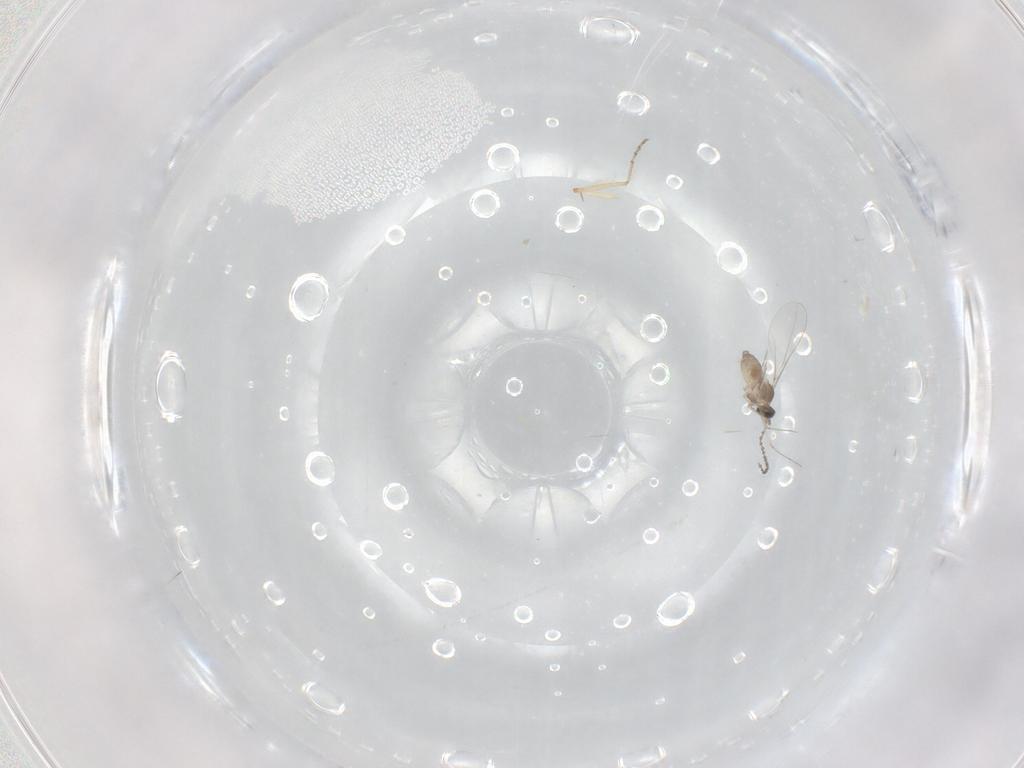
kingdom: Animalia
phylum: Arthropoda
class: Insecta
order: Diptera
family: Cecidomyiidae
